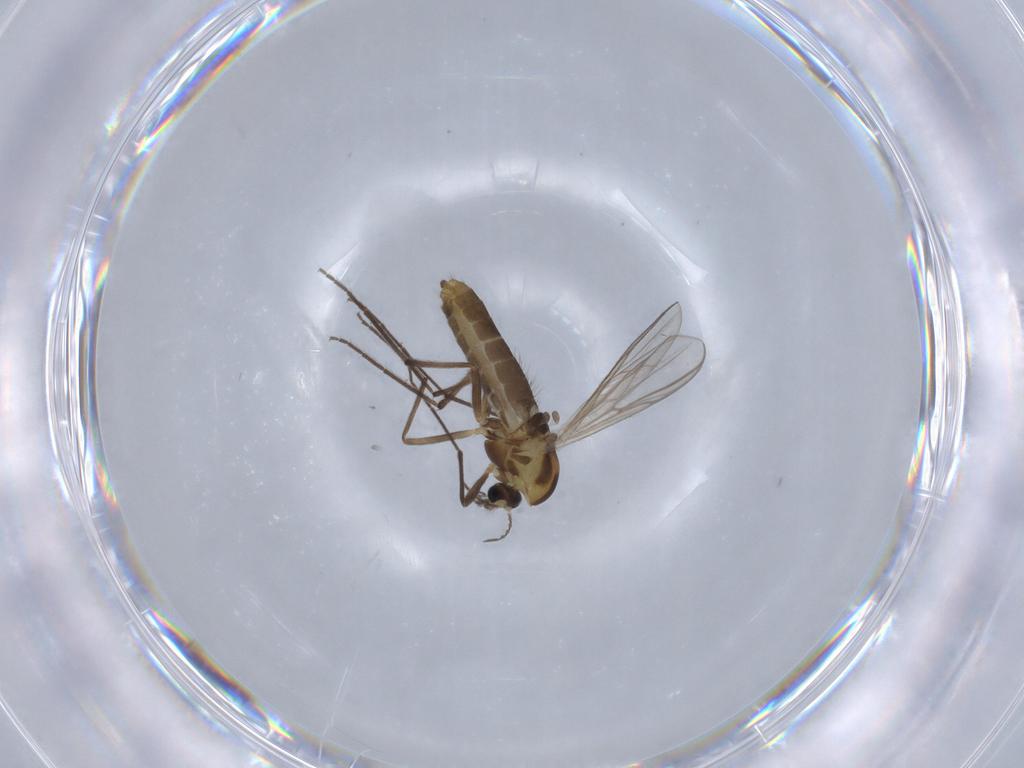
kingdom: Animalia
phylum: Arthropoda
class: Insecta
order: Diptera
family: Chironomidae
